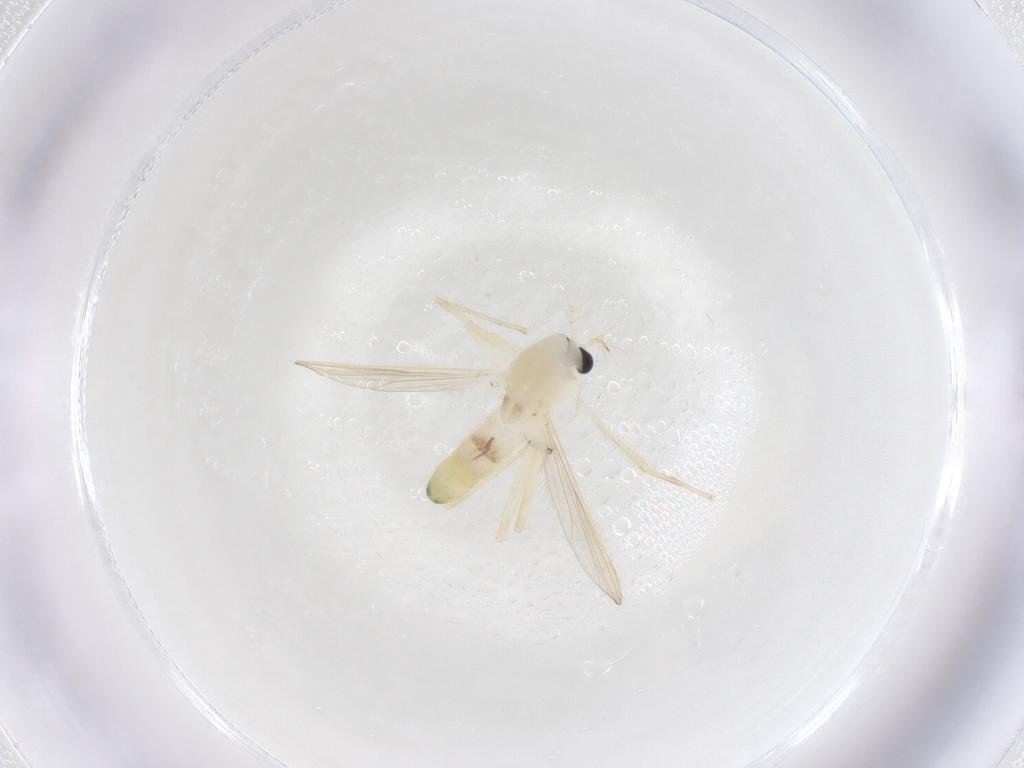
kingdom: Animalia
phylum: Arthropoda
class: Insecta
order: Diptera
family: Chironomidae
